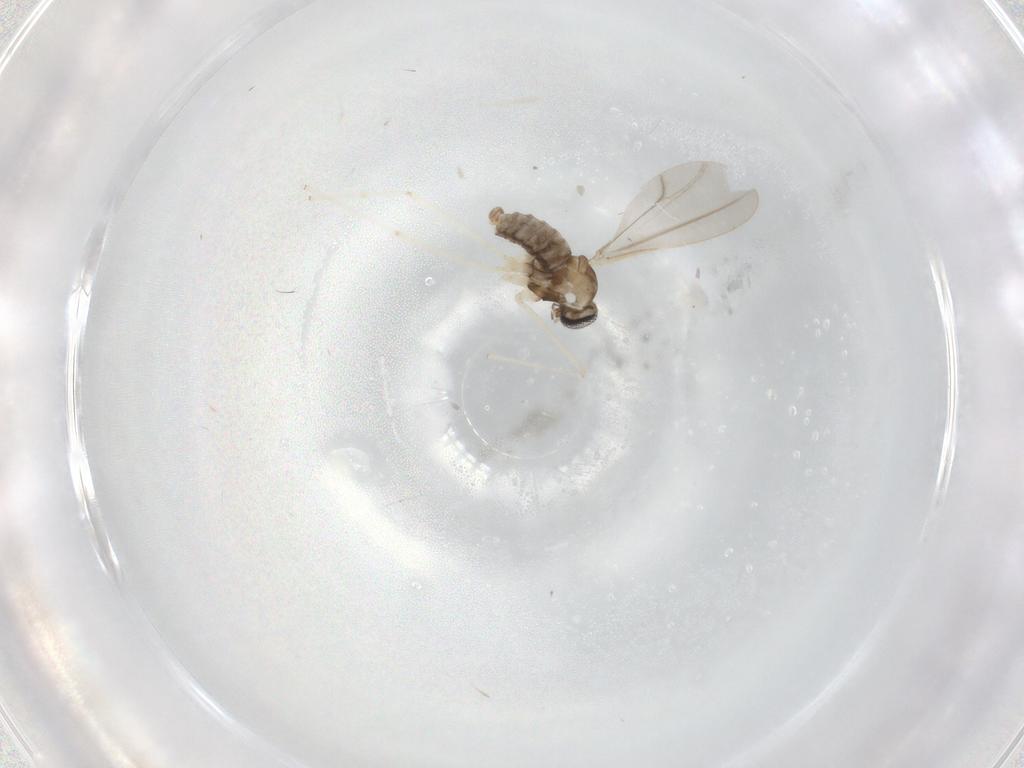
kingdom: Animalia
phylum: Arthropoda
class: Insecta
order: Diptera
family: Cecidomyiidae
